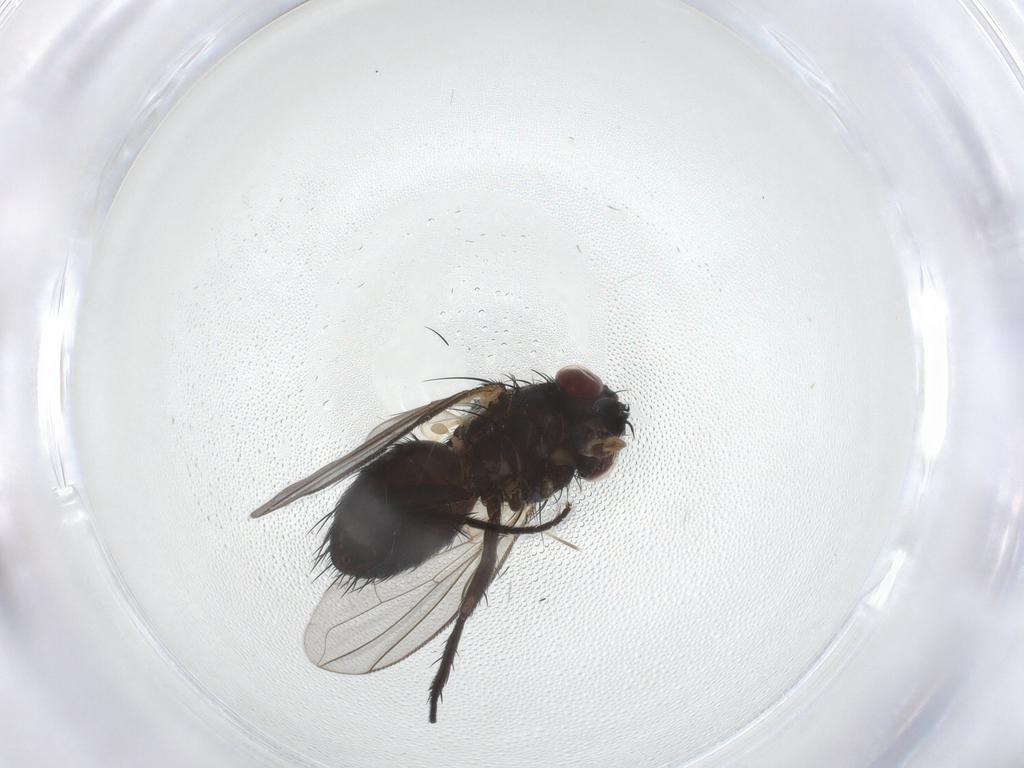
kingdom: Animalia
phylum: Arthropoda
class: Insecta
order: Diptera
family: Tachinidae
